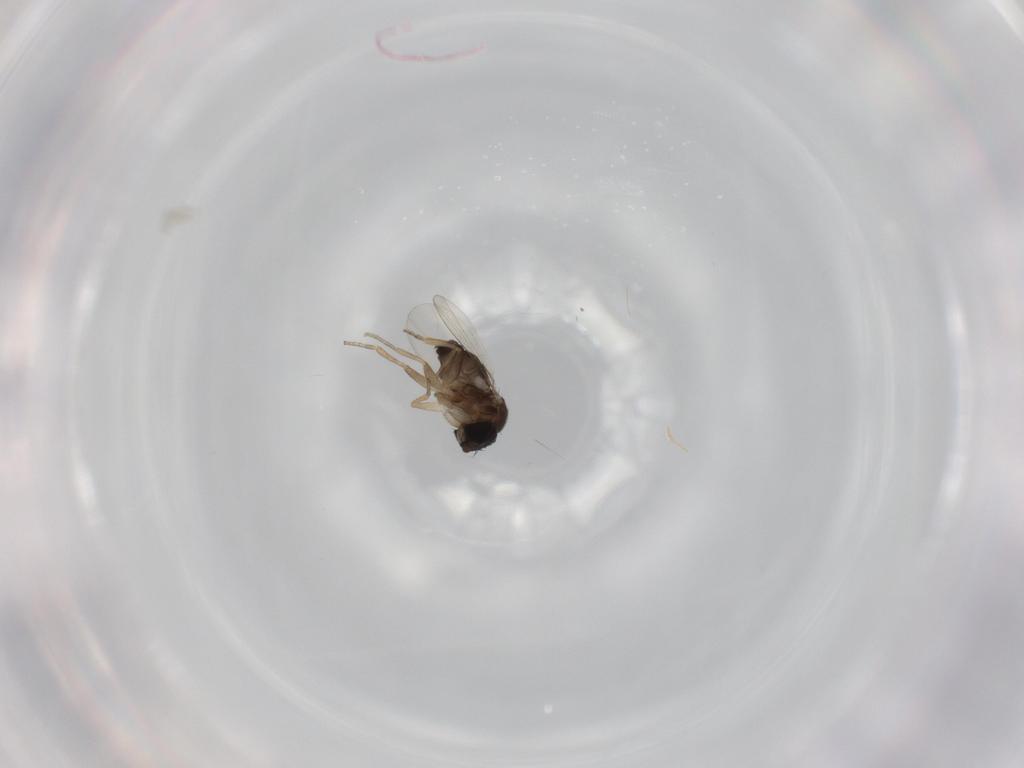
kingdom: Animalia
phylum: Arthropoda
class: Insecta
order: Diptera
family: Phoridae
